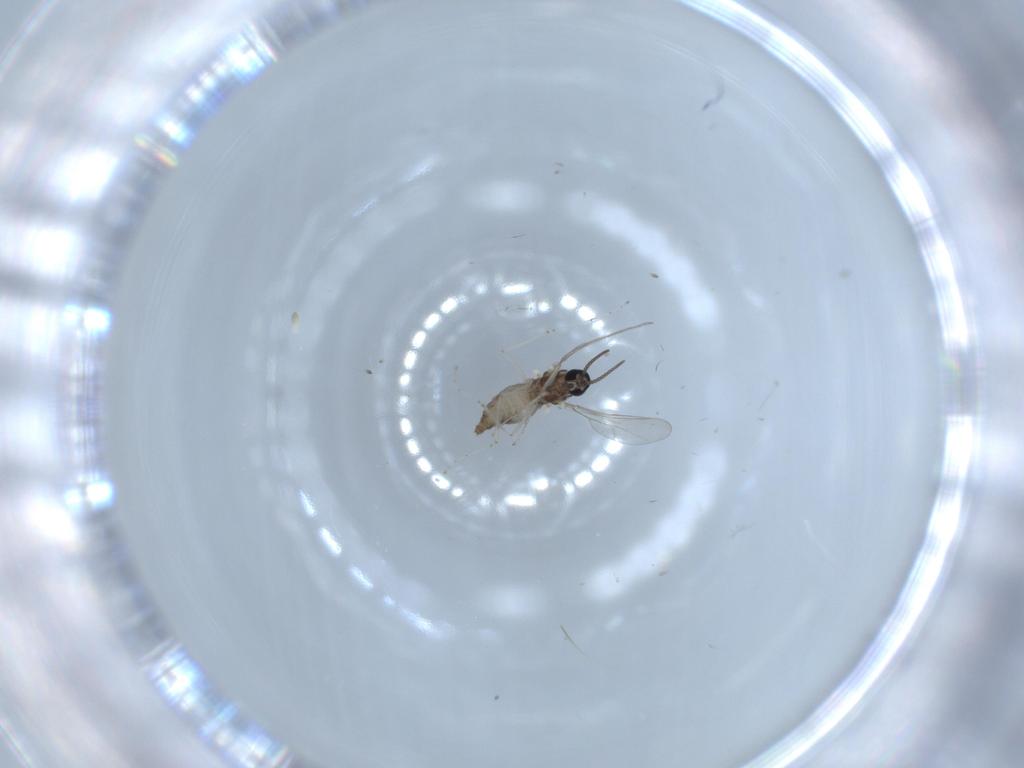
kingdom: Animalia
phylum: Arthropoda
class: Insecta
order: Diptera
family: Cecidomyiidae
